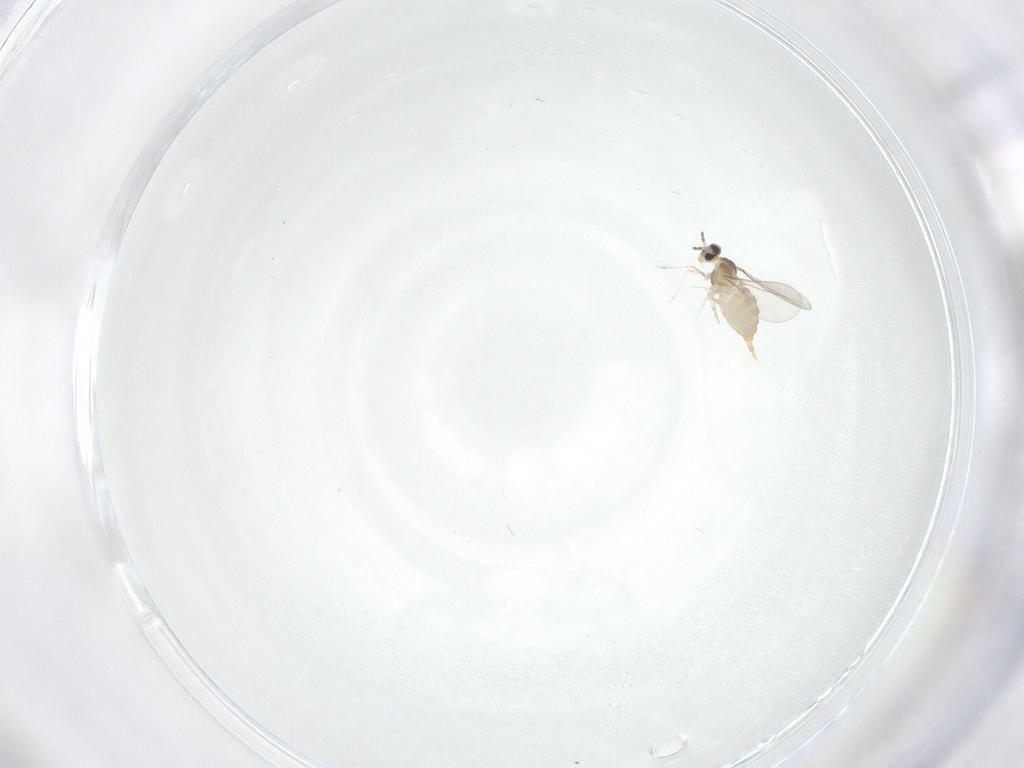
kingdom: Animalia
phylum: Arthropoda
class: Insecta
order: Diptera
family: Cecidomyiidae
